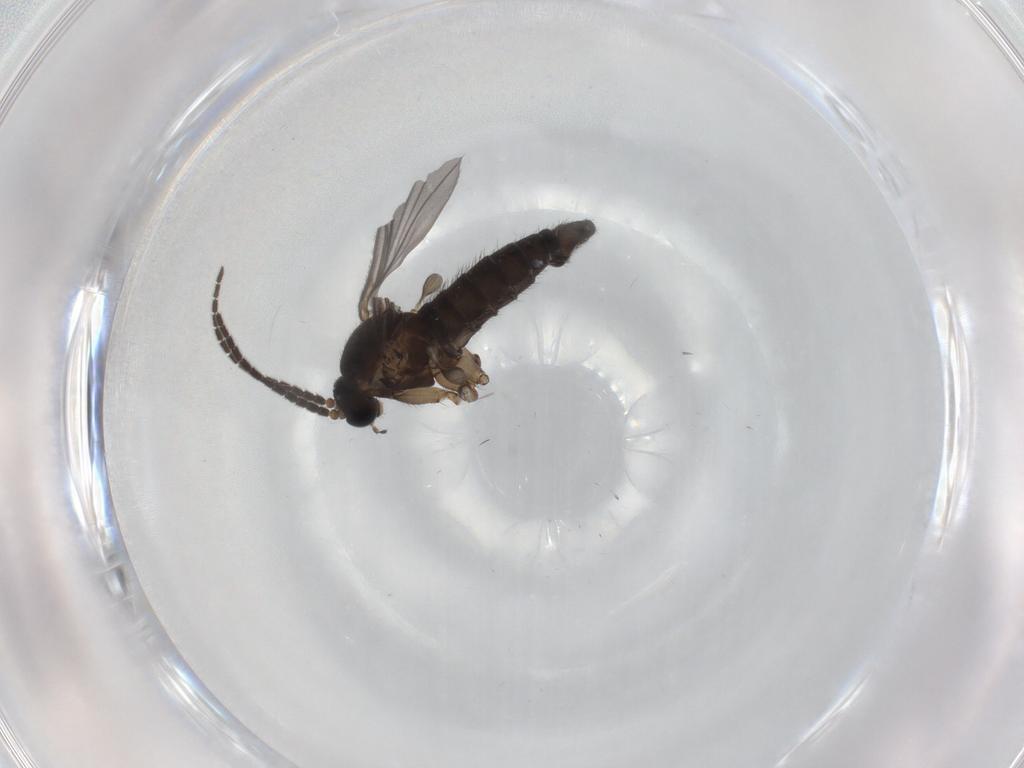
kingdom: Animalia
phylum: Arthropoda
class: Insecta
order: Diptera
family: Sciaridae
